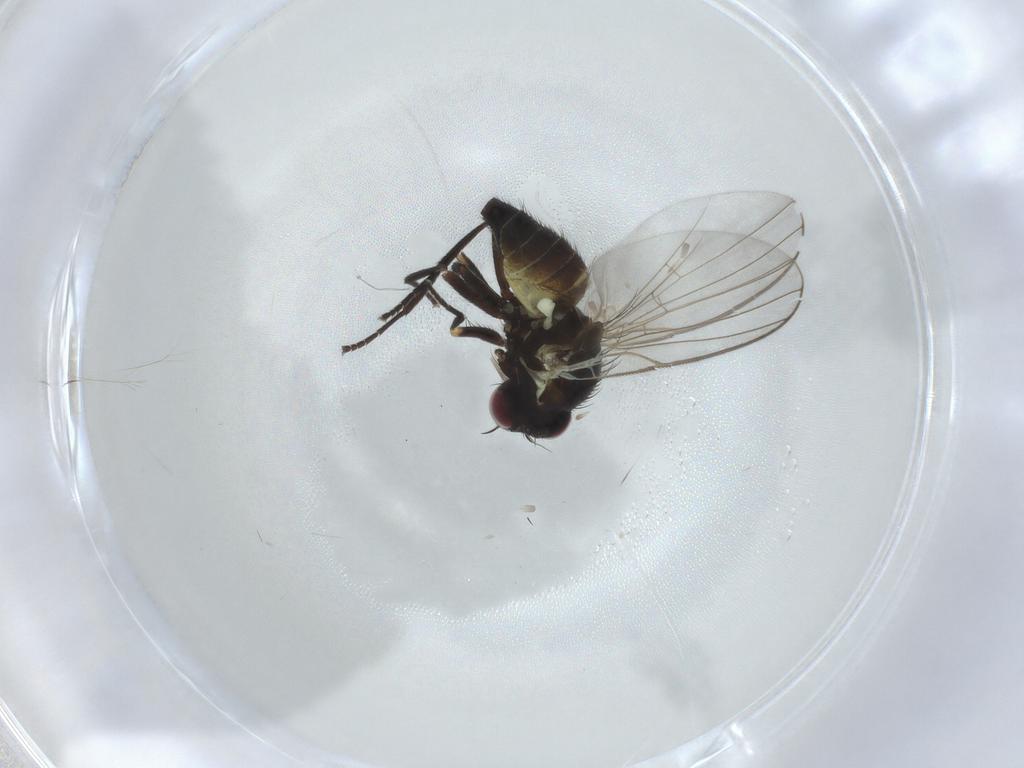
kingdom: Animalia
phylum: Arthropoda
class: Insecta
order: Diptera
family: Agromyzidae
